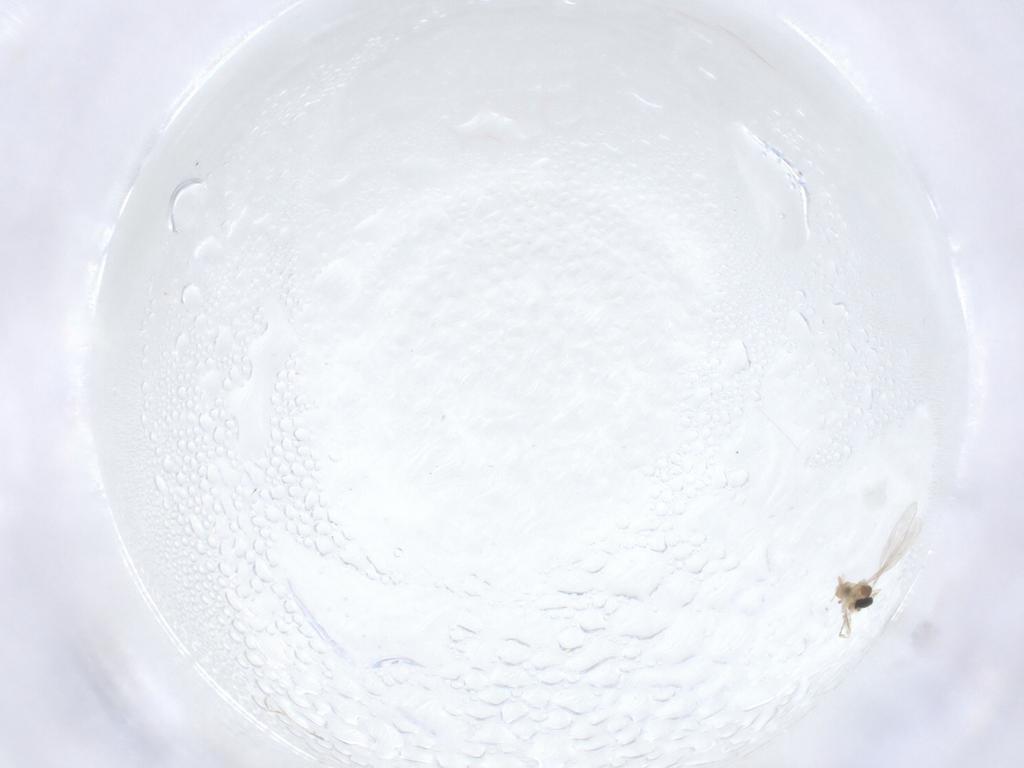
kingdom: Animalia
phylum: Arthropoda
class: Insecta
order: Diptera
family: Cecidomyiidae
